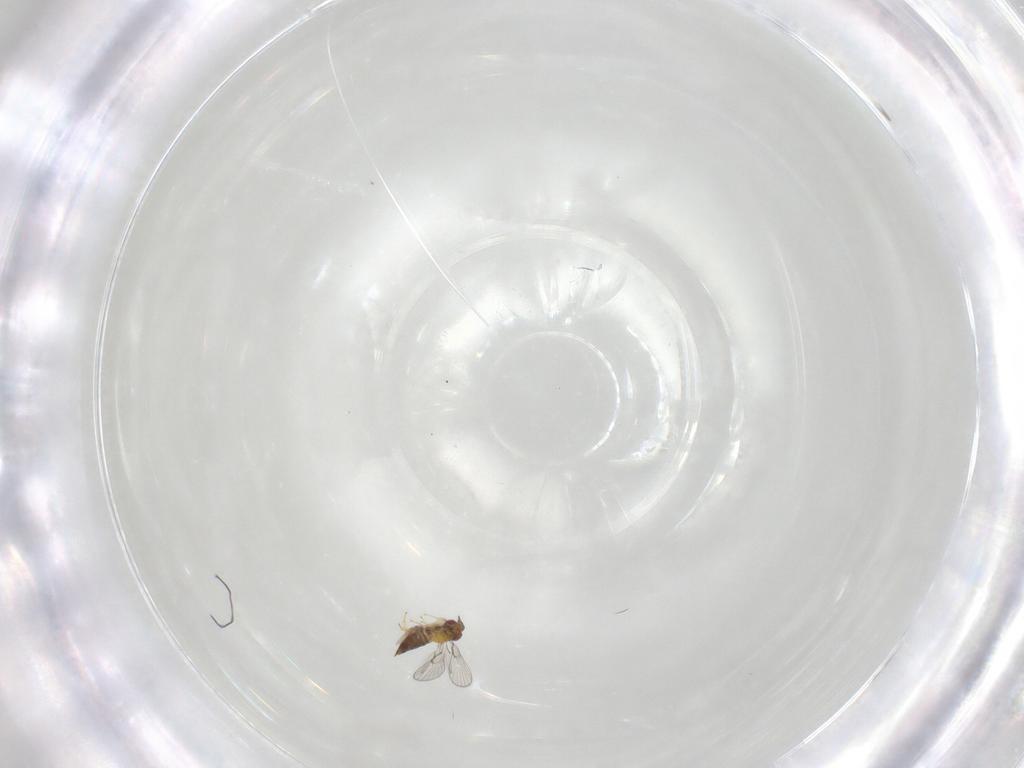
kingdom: Animalia
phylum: Arthropoda
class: Insecta
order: Hymenoptera
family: Trichogrammatidae
